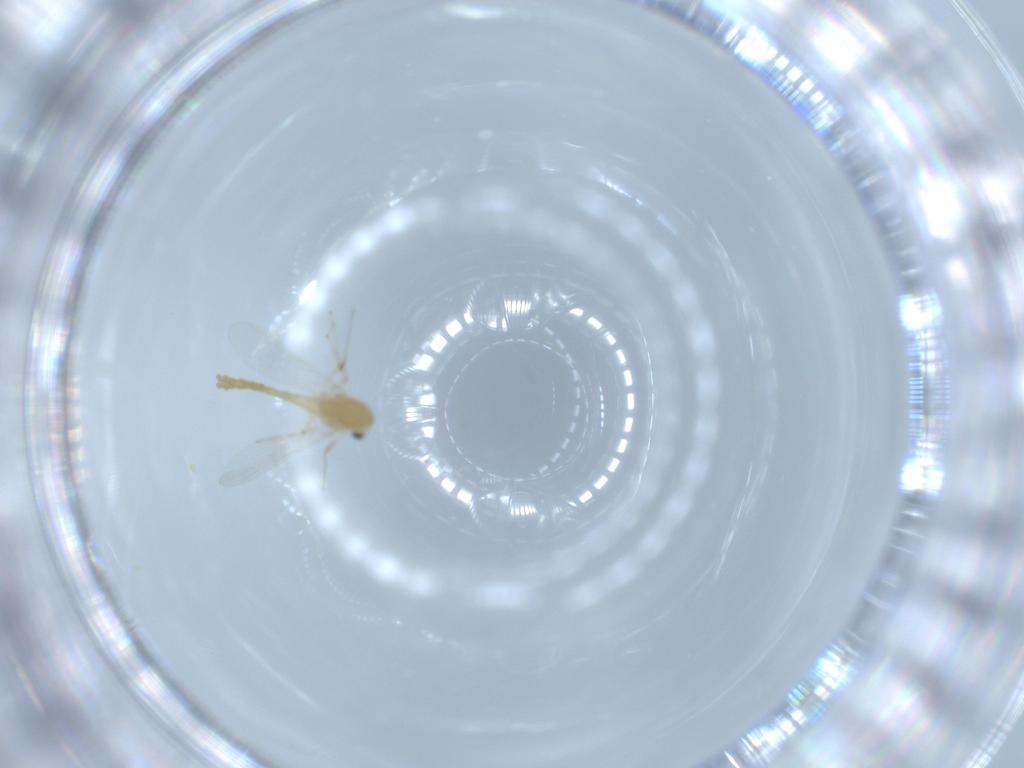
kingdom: Animalia
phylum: Arthropoda
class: Insecta
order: Diptera
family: Chironomidae
